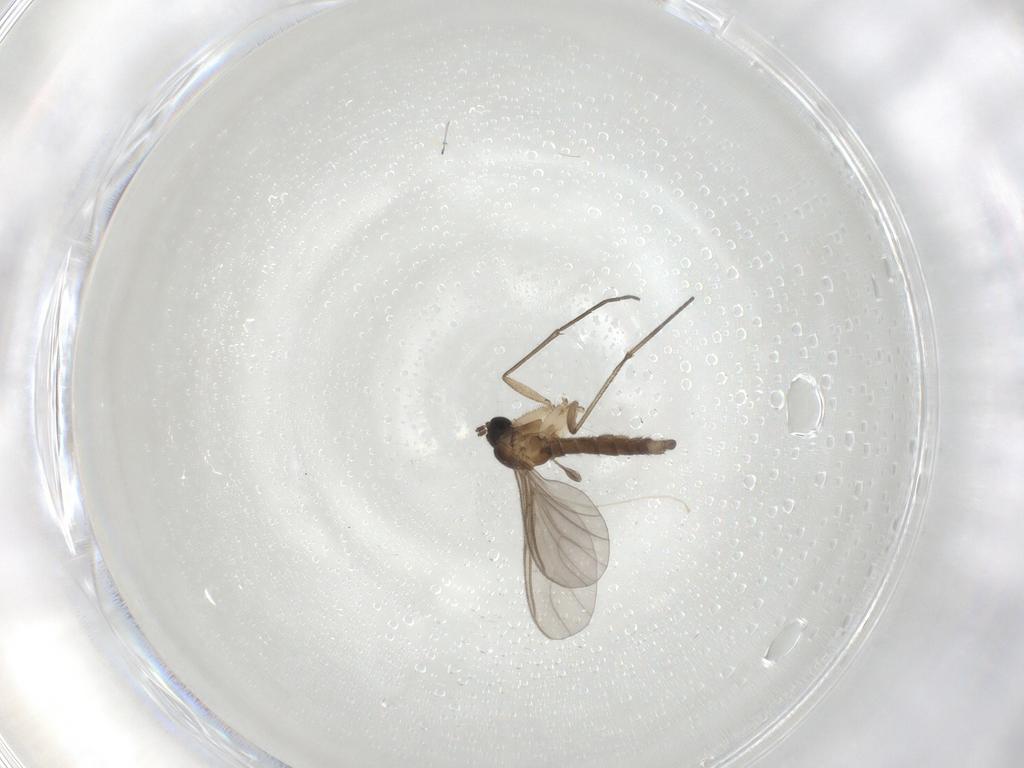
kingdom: Animalia
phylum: Arthropoda
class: Insecta
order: Diptera
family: Sciaridae
